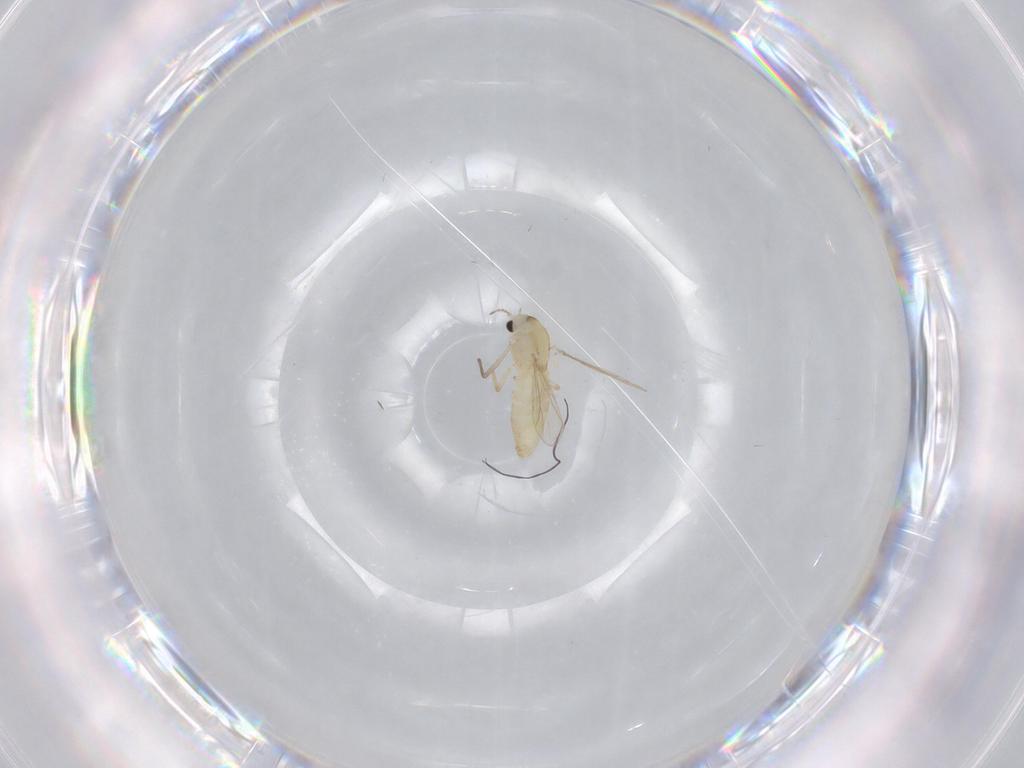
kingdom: Animalia
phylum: Arthropoda
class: Insecta
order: Diptera
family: Chironomidae
